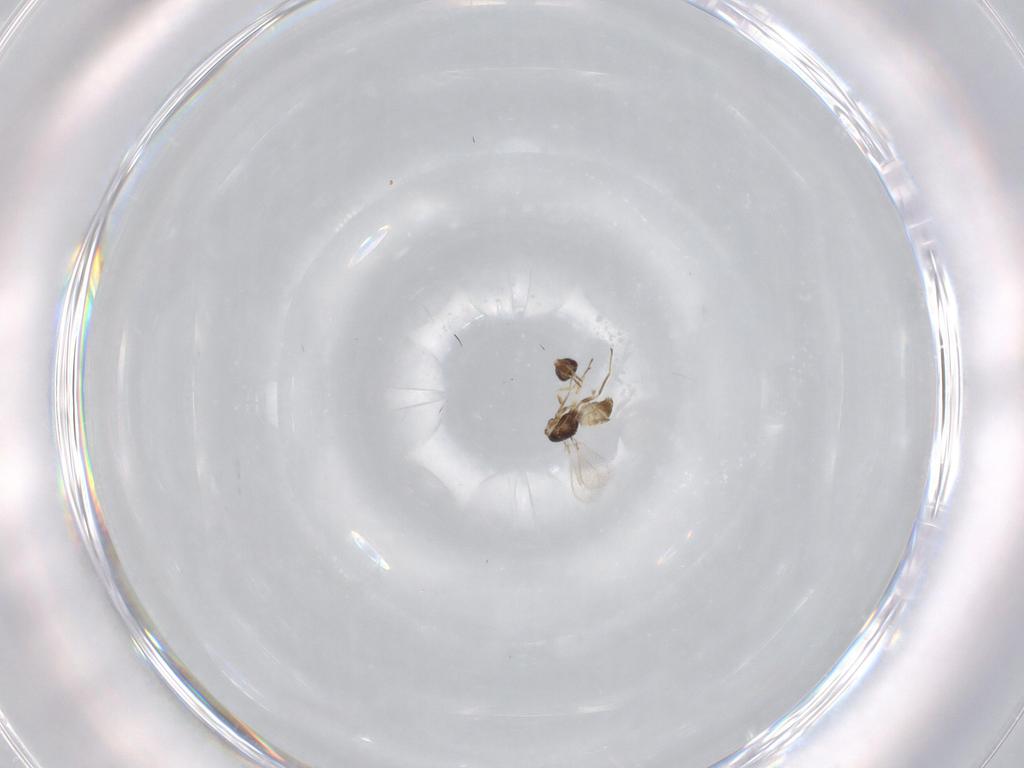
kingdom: Animalia
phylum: Arthropoda
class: Insecta
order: Hymenoptera
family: Mymaridae
